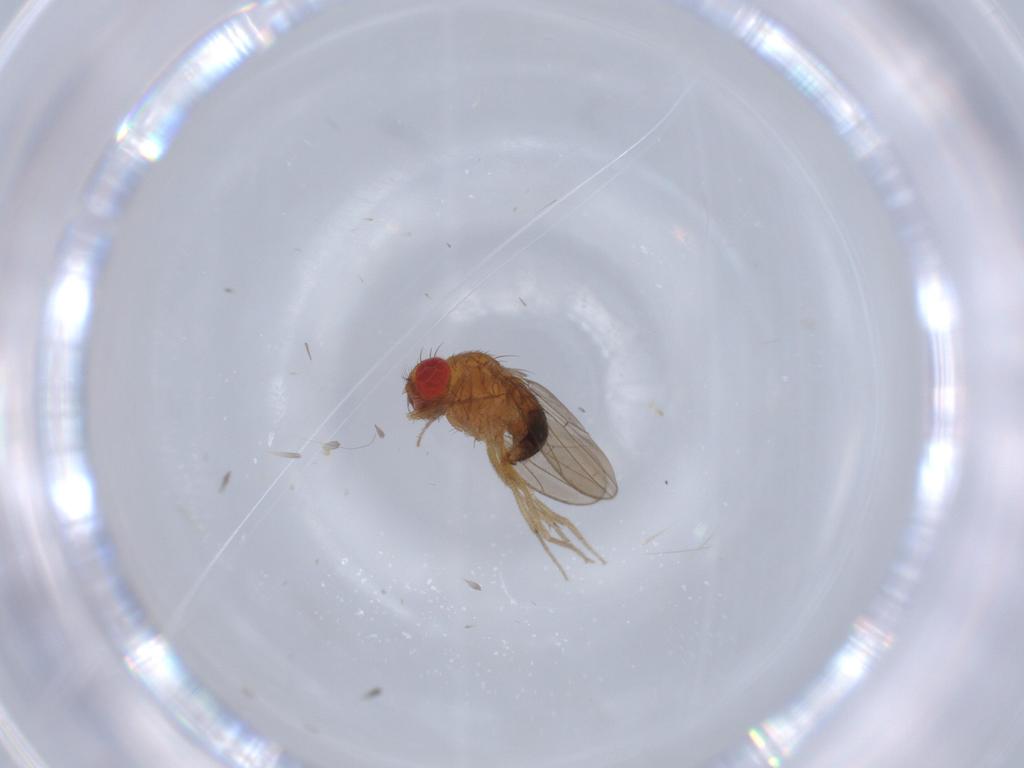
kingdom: Animalia
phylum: Arthropoda
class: Insecta
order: Diptera
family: Drosophilidae
